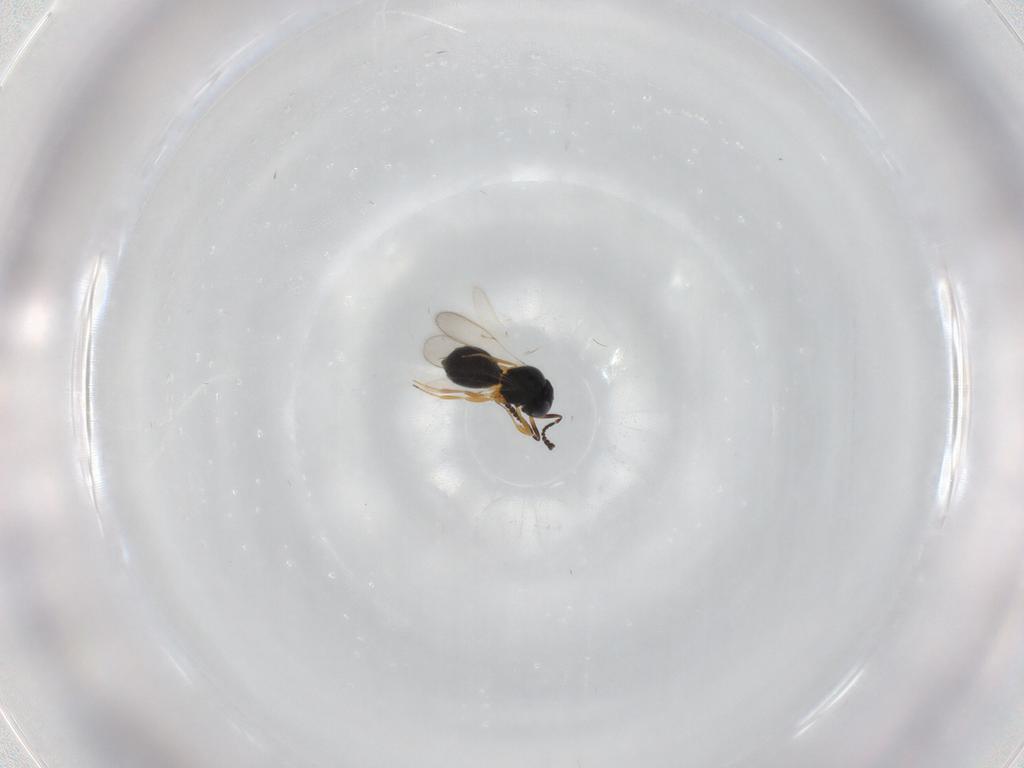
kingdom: Animalia
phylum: Arthropoda
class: Insecta
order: Hymenoptera
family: Scelionidae
